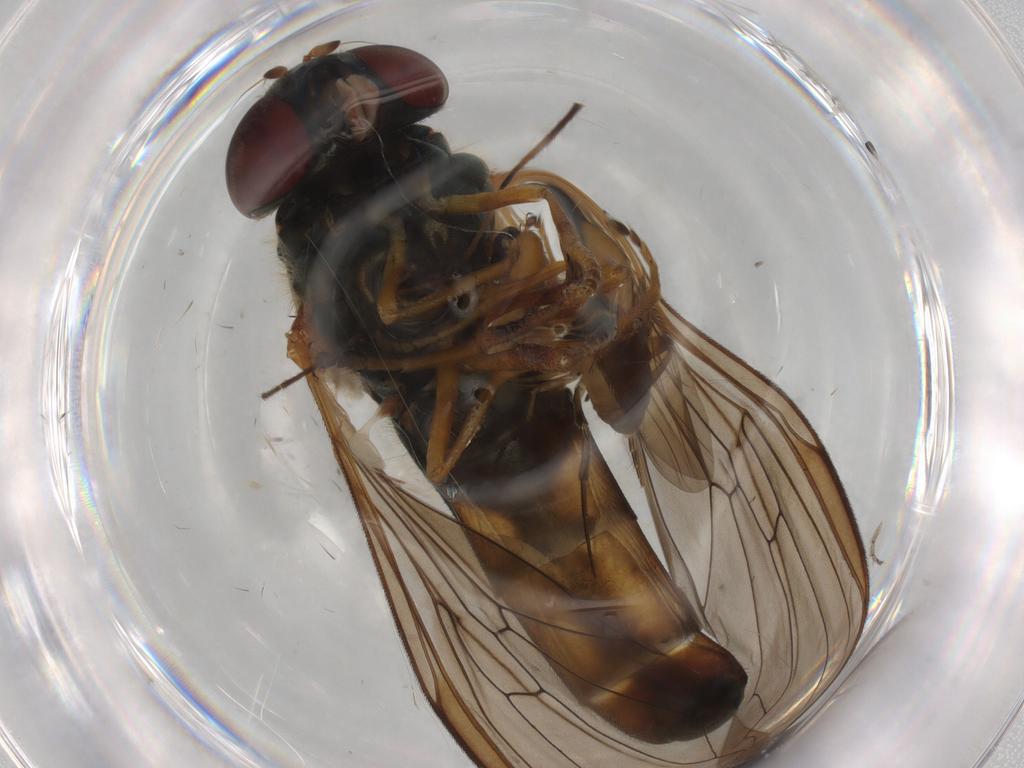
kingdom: Animalia
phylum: Arthropoda
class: Insecta
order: Diptera
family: Syrphidae
